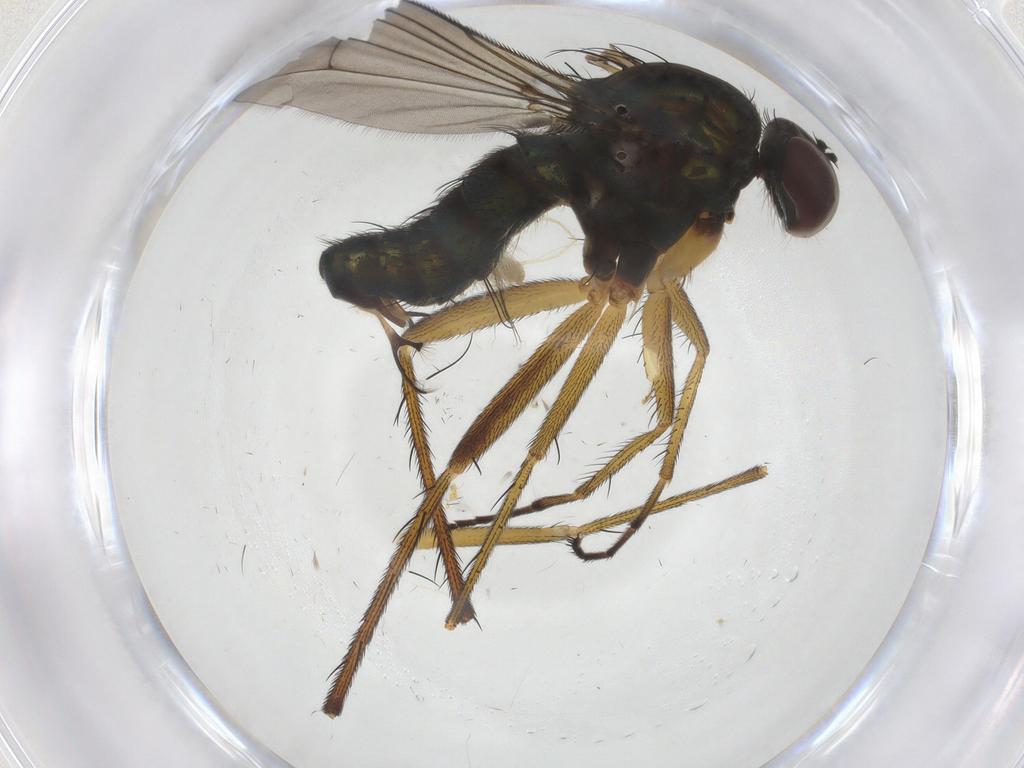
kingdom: Animalia
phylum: Arthropoda
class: Insecta
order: Diptera
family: Dolichopodidae
